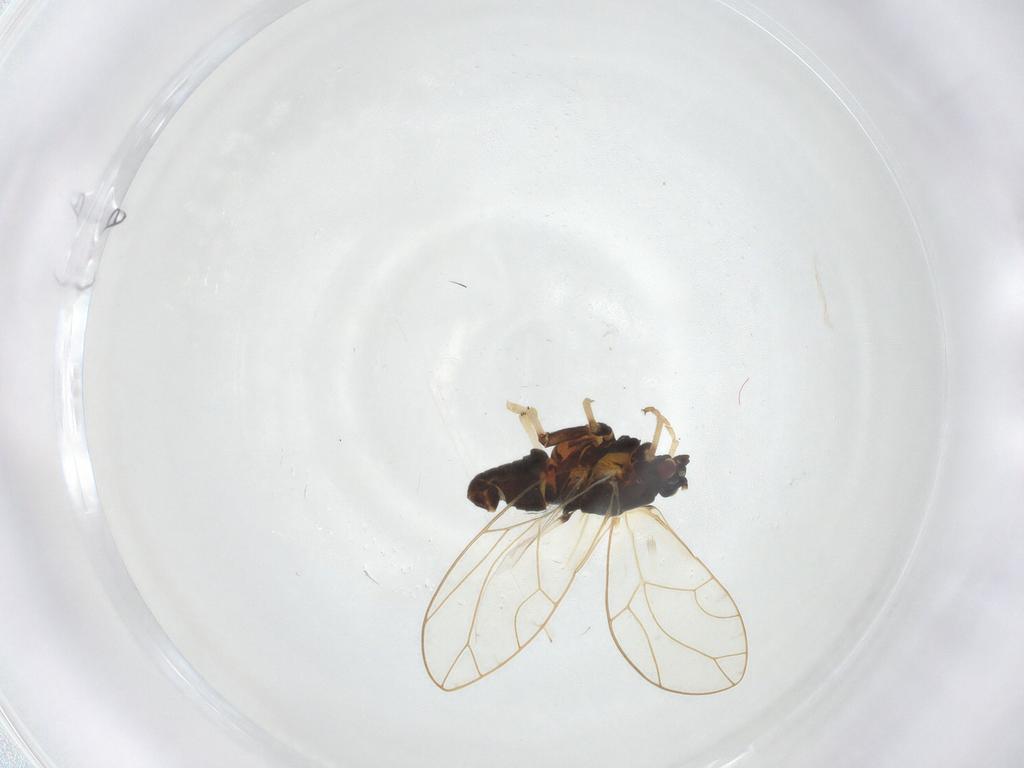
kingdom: Animalia
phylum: Arthropoda
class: Insecta
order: Hemiptera
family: Triozidae
